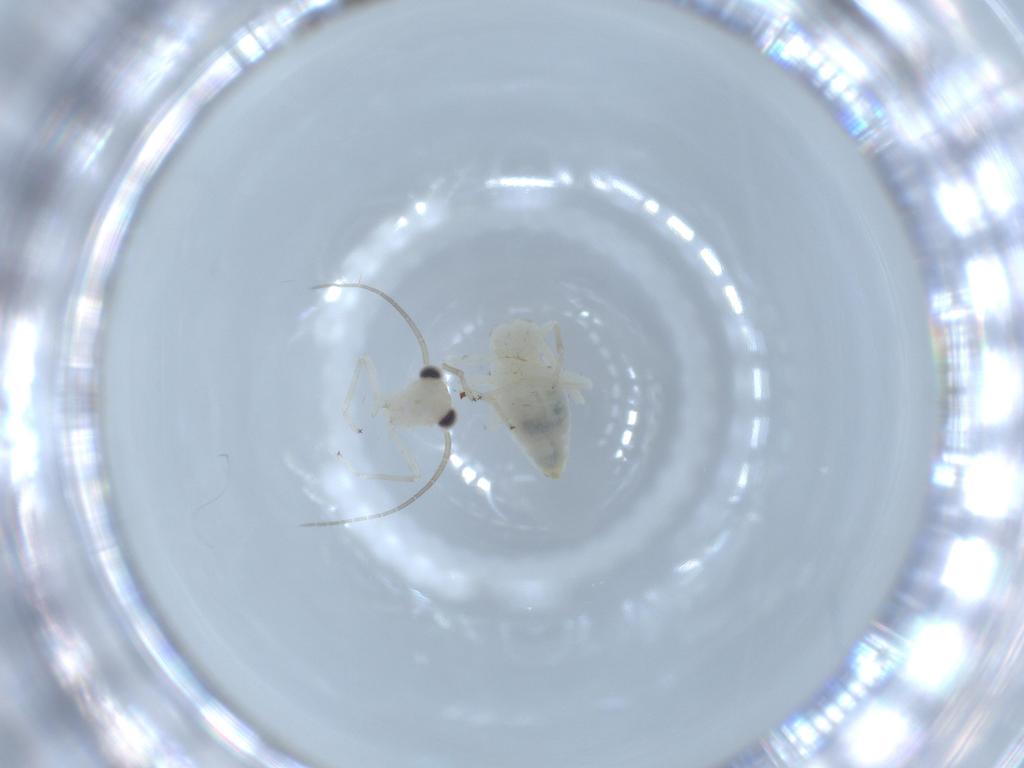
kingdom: Animalia
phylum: Arthropoda
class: Insecta
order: Psocodea
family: Caeciliusidae
